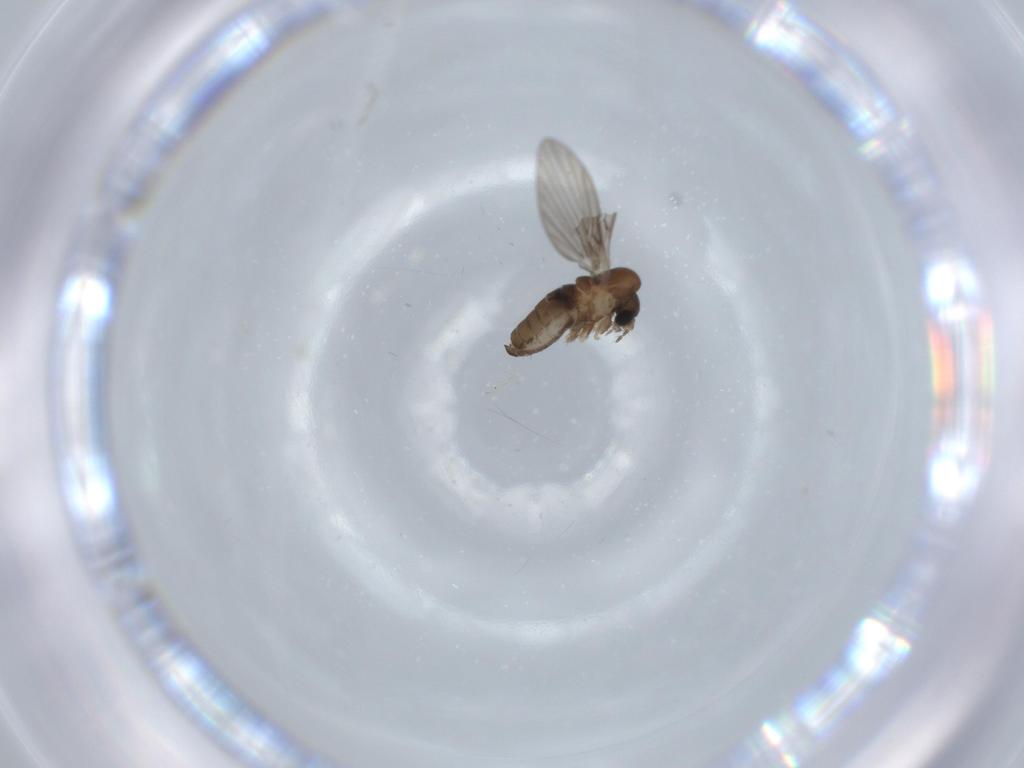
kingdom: Animalia
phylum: Arthropoda
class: Insecta
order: Diptera
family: Psychodidae
